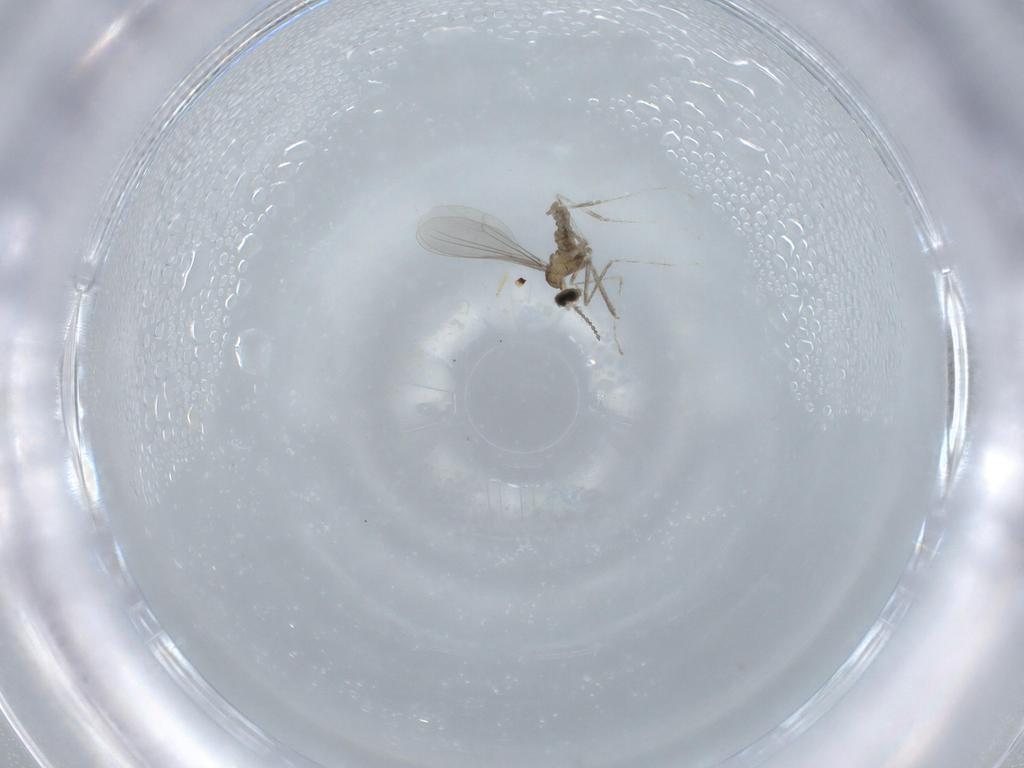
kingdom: Animalia
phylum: Arthropoda
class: Insecta
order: Diptera
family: Cecidomyiidae
